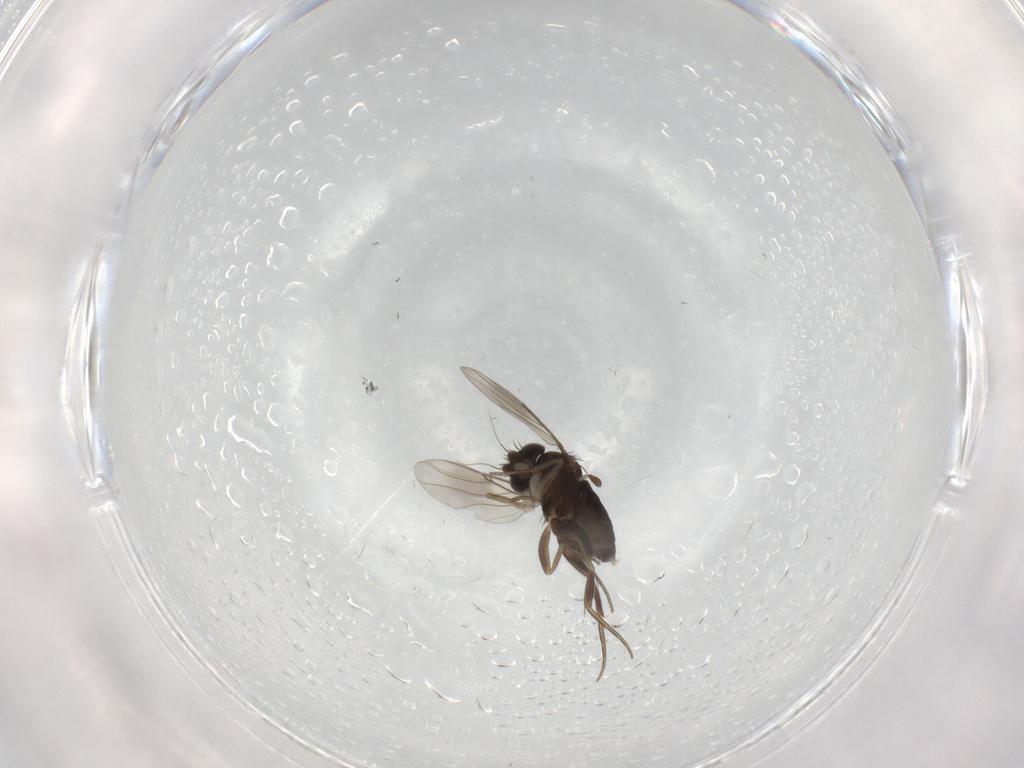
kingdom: Animalia
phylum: Arthropoda
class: Insecta
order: Diptera
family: Phoridae
